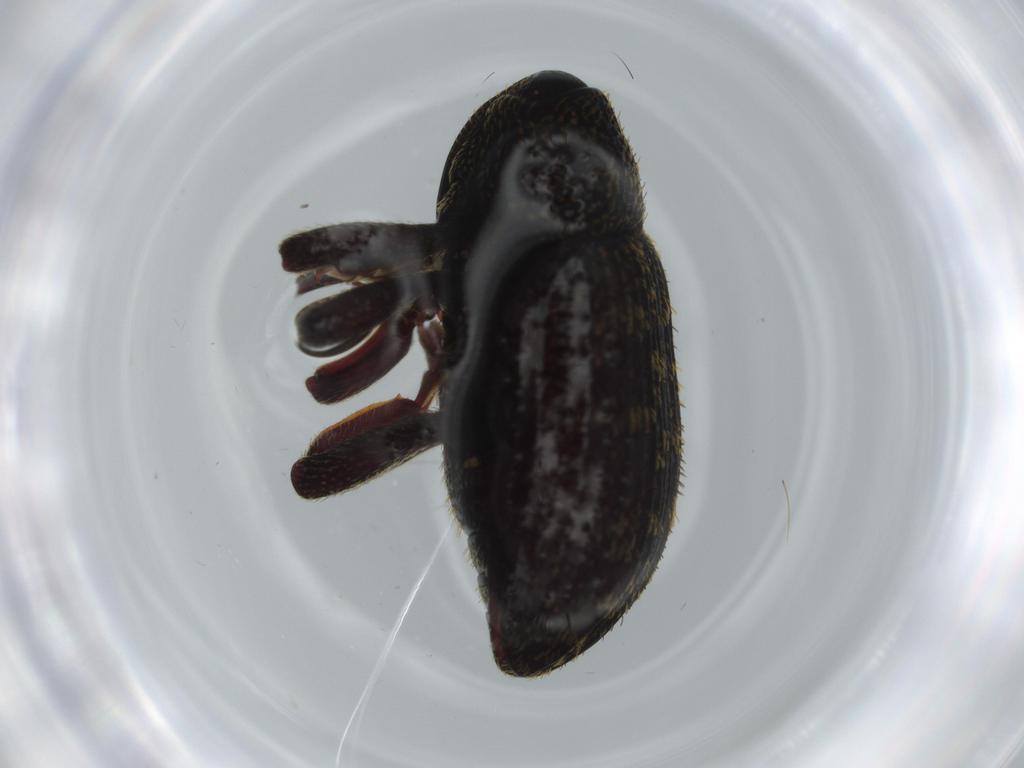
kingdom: Animalia
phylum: Arthropoda
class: Insecta
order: Coleoptera
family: Curculionidae
